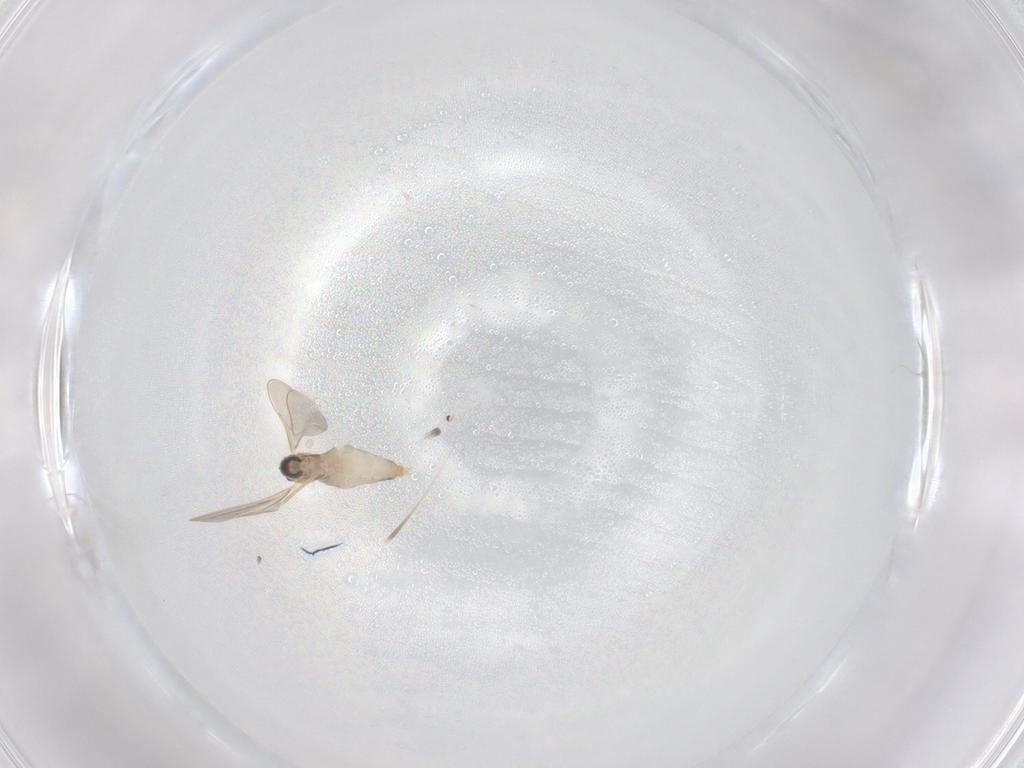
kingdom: Animalia
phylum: Arthropoda
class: Insecta
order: Diptera
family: Cecidomyiidae
